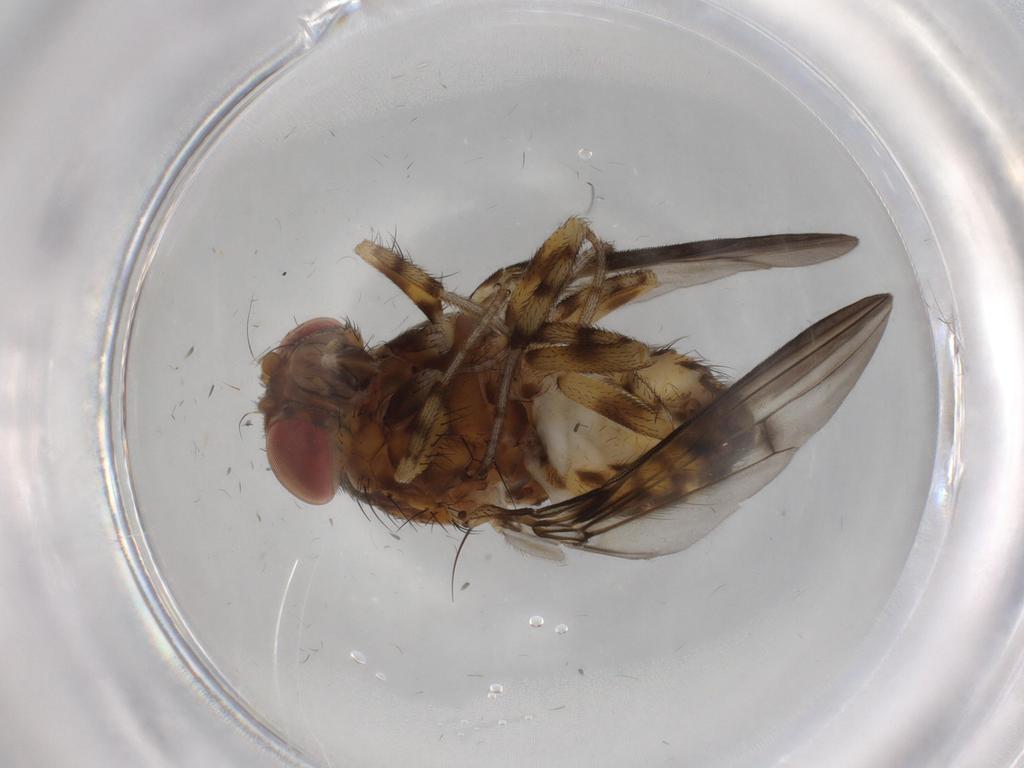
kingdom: Animalia
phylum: Arthropoda
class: Insecta
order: Diptera
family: Drosophilidae
